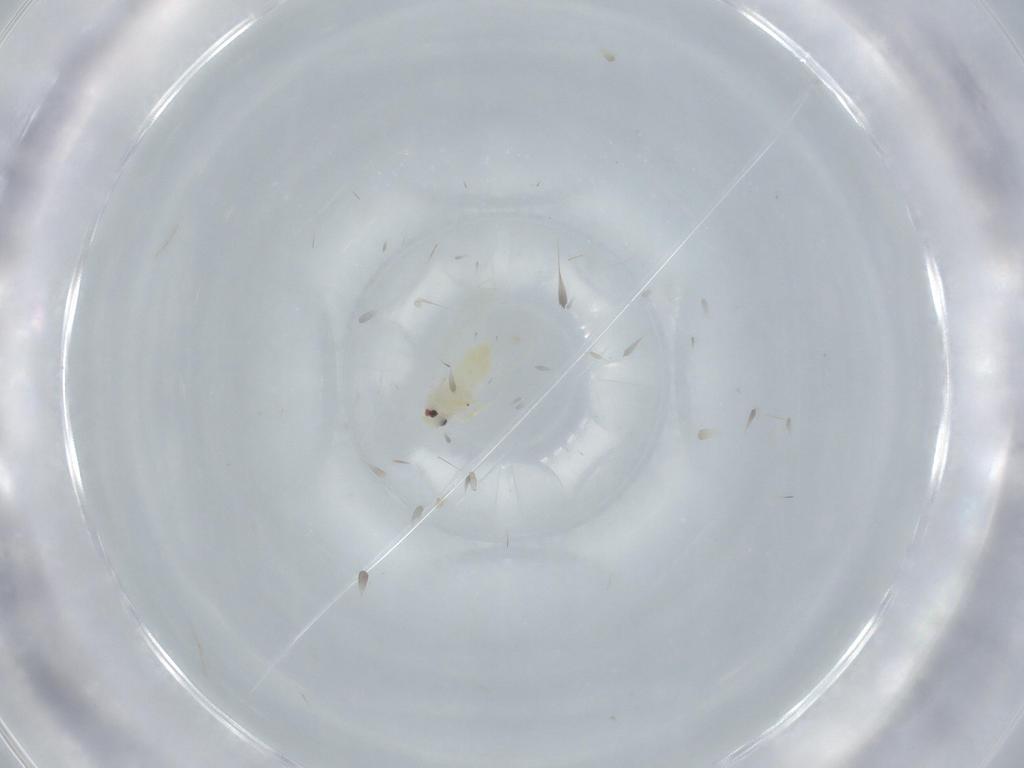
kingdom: Animalia
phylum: Arthropoda
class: Insecta
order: Hemiptera
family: Aleyrodidae
